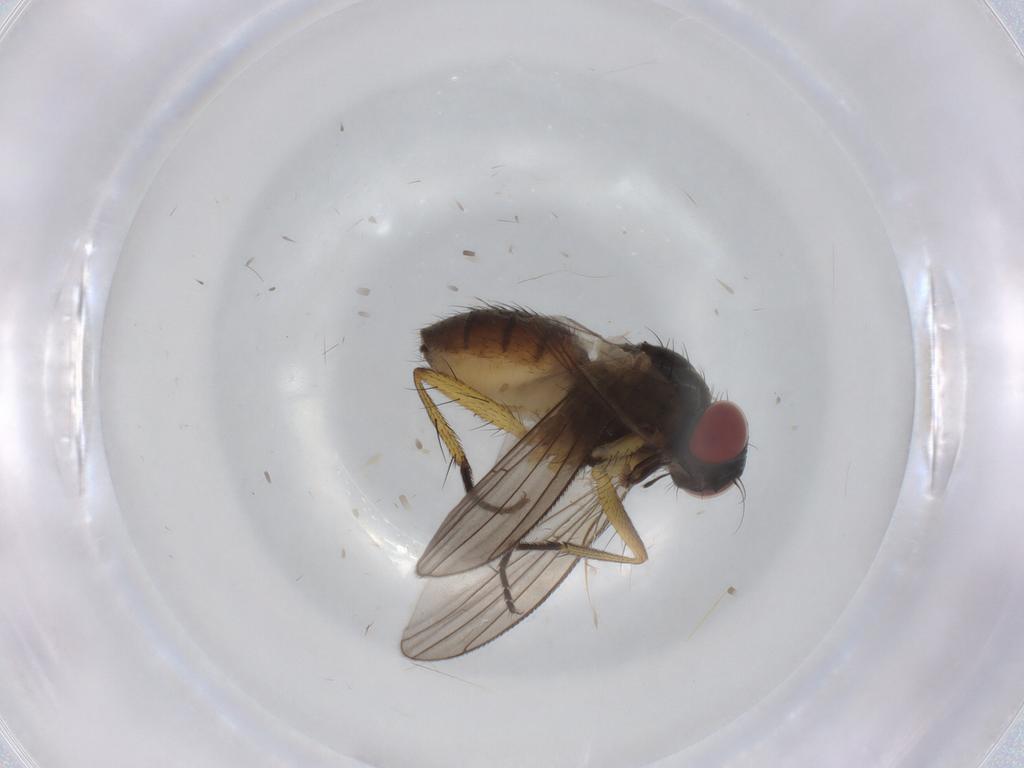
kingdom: Animalia
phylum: Arthropoda
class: Insecta
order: Diptera
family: Muscidae
